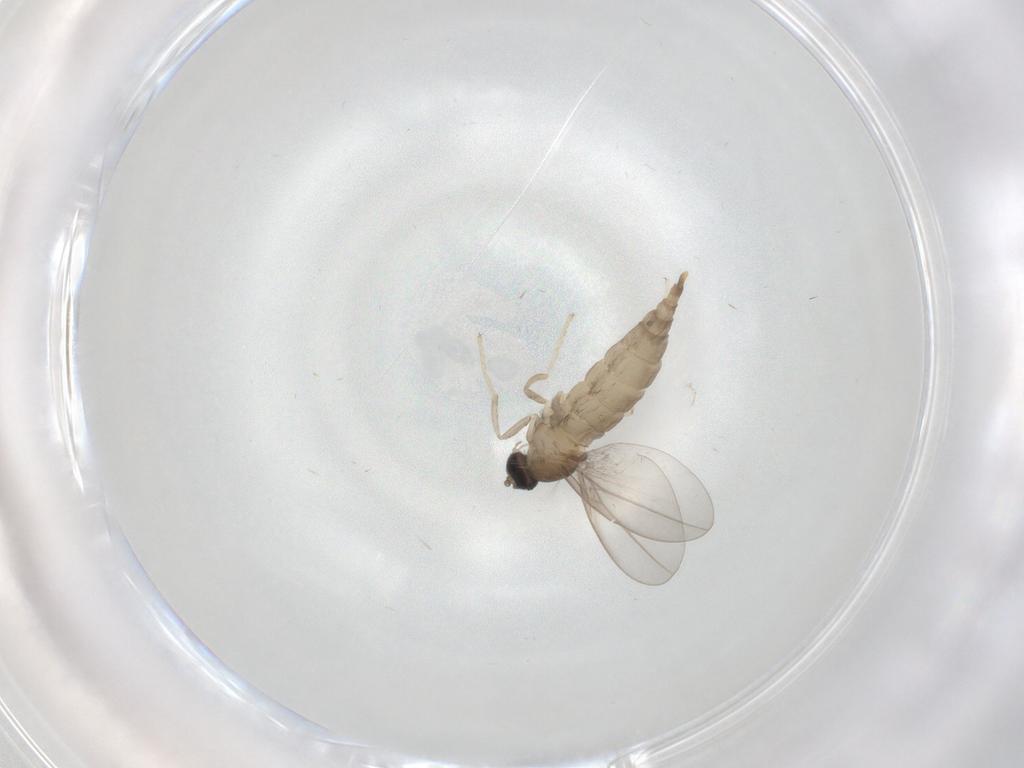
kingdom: Animalia
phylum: Arthropoda
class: Insecta
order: Diptera
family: Cecidomyiidae
